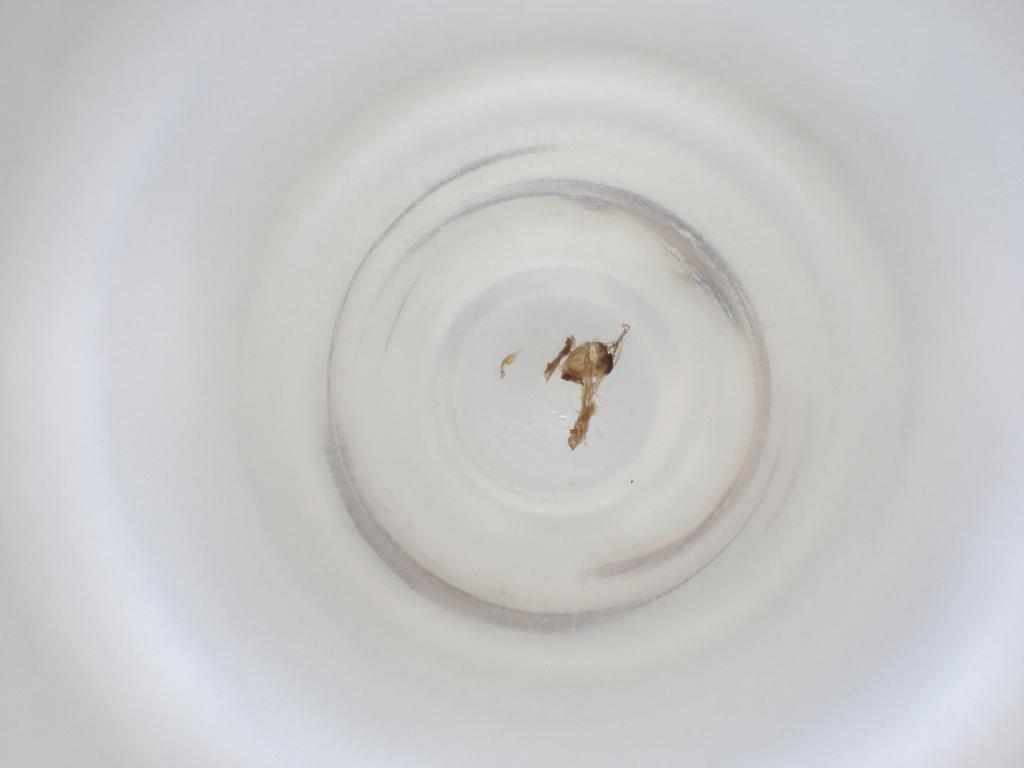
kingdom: Animalia
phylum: Arthropoda
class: Insecta
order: Diptera
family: Cecidomyiidae
